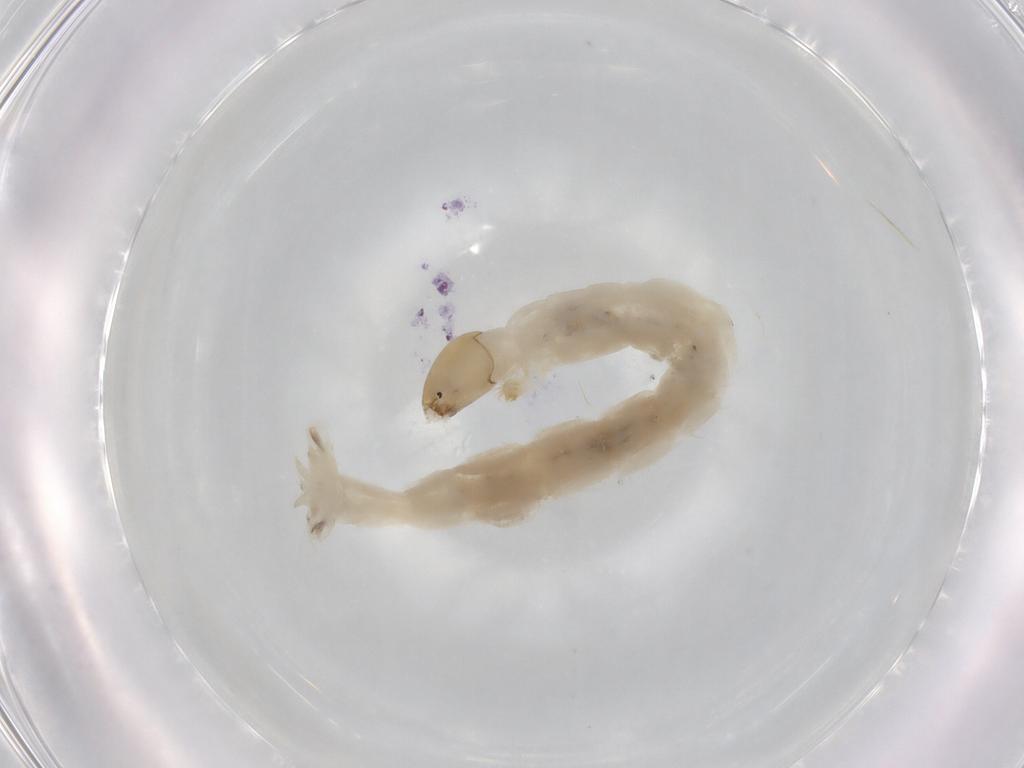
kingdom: Animalia
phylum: Arthropoda
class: Insecta
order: Diptera
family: Chironomidae
